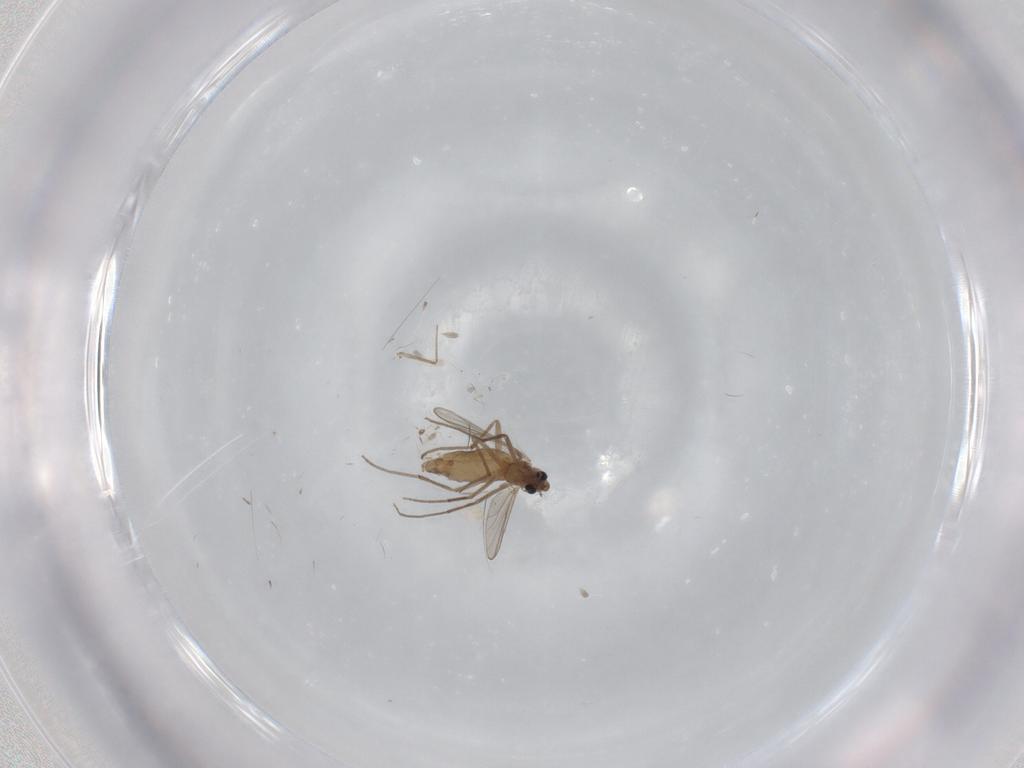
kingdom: Animalia
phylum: Arthropoda
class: Insecta
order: Diptera
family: Chironomidae
